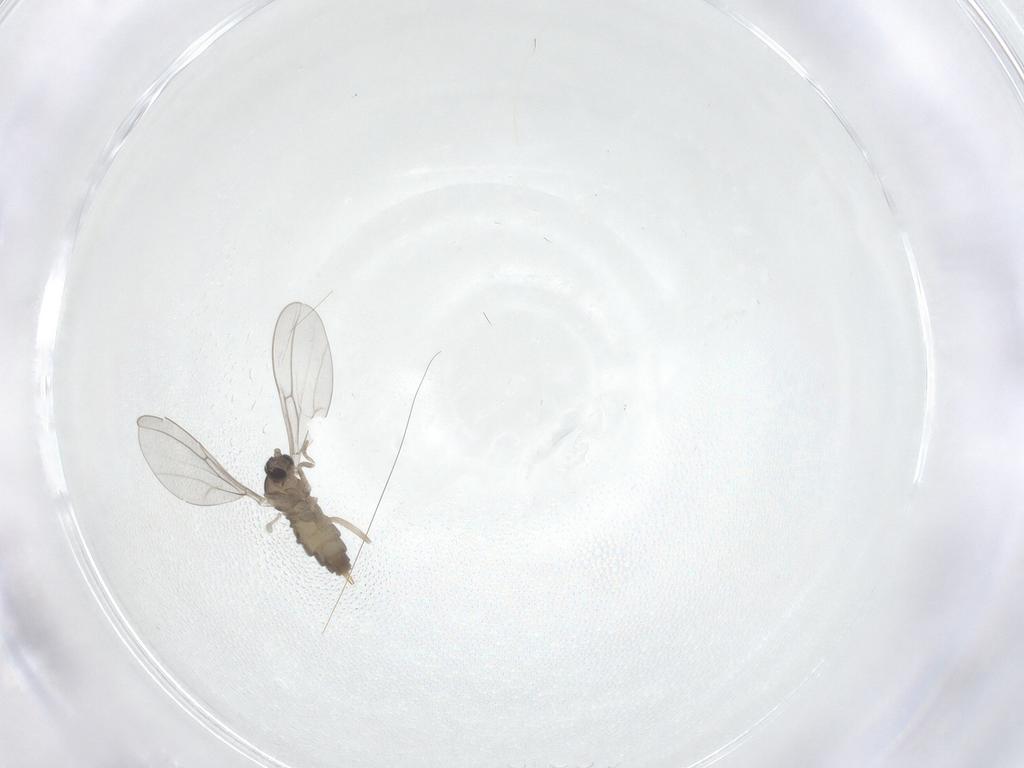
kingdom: Animalia
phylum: Arthropoda
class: Insecta
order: Diptera
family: Cecidomyiidae
